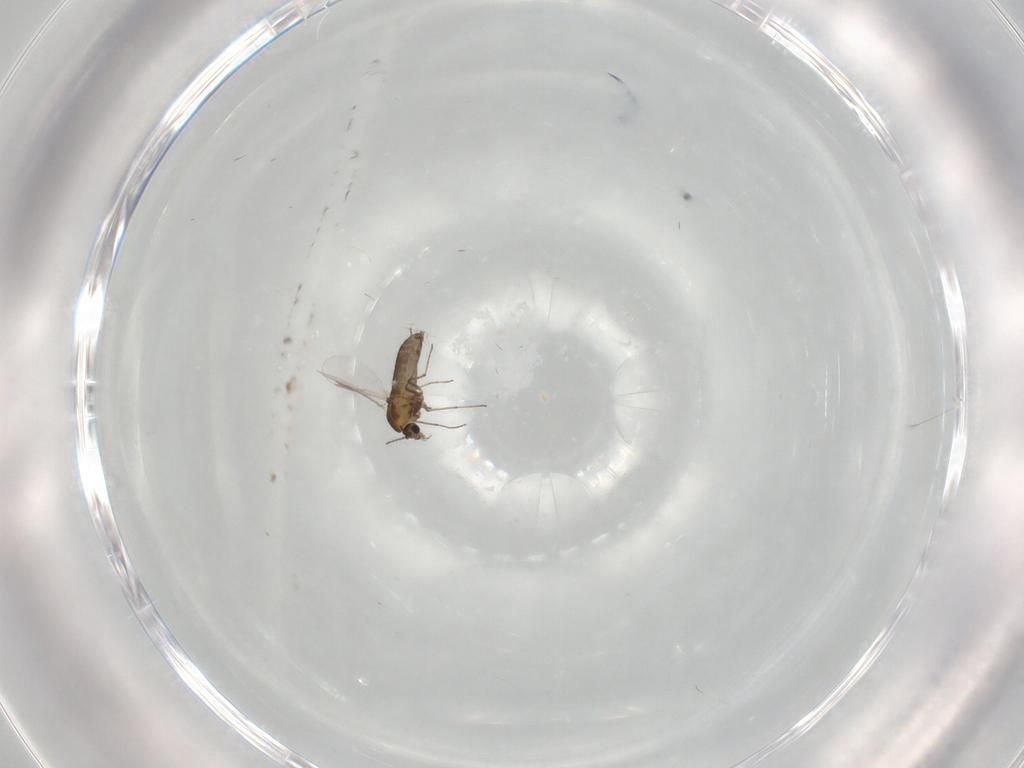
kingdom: Animalia
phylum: Arthropoda
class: Insecta
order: Diptera
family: Chironomidae
